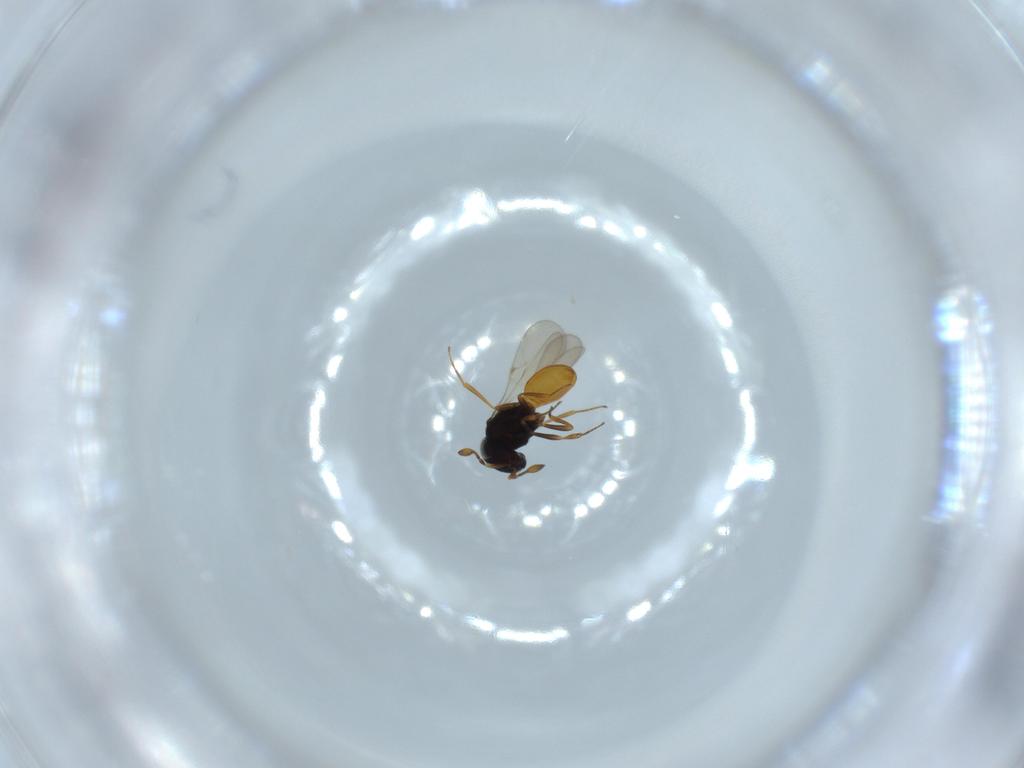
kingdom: Animalia
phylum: Arthropoda
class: Insecta
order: Hymenoptera
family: Scelionidae
